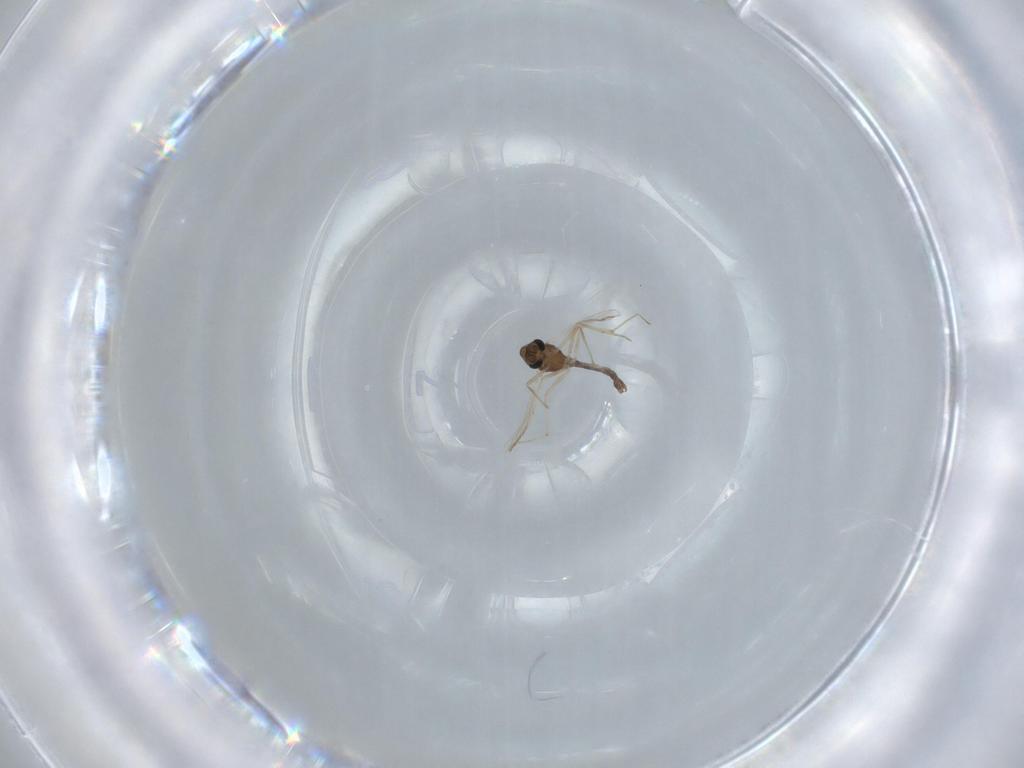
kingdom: Animalia
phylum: Arthropoda
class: Insecta
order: Diptera
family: Chironomidae
